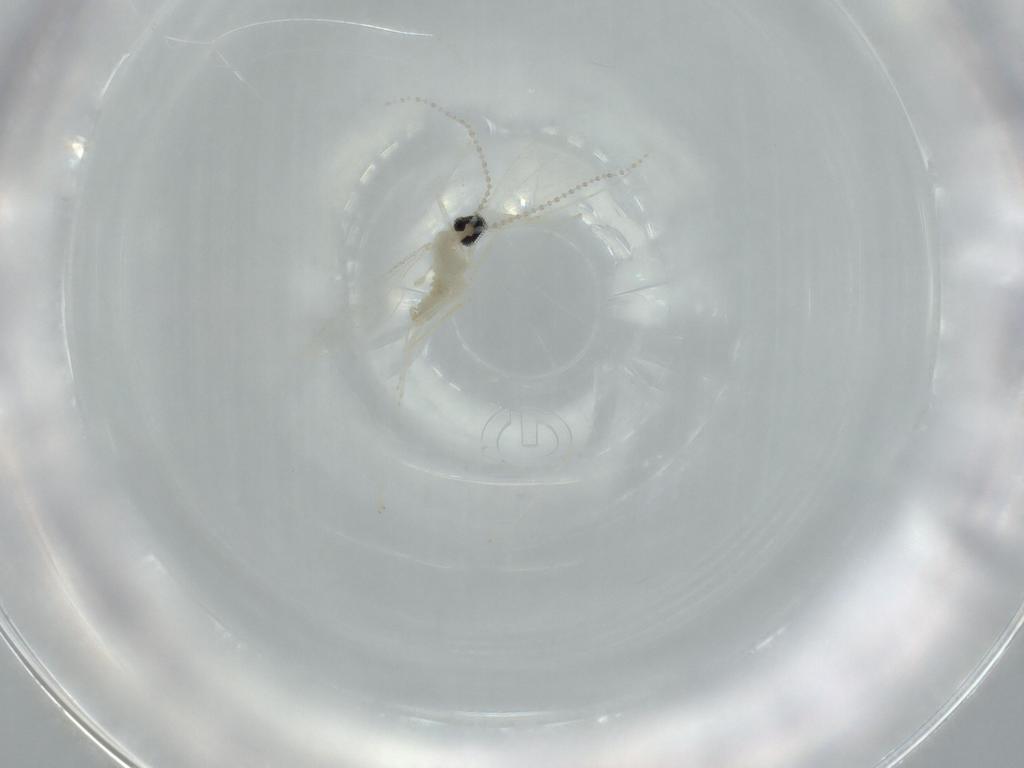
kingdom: Animalia
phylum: Arthropoda
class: Insecta
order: Diptera
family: Cecidomyiidae
